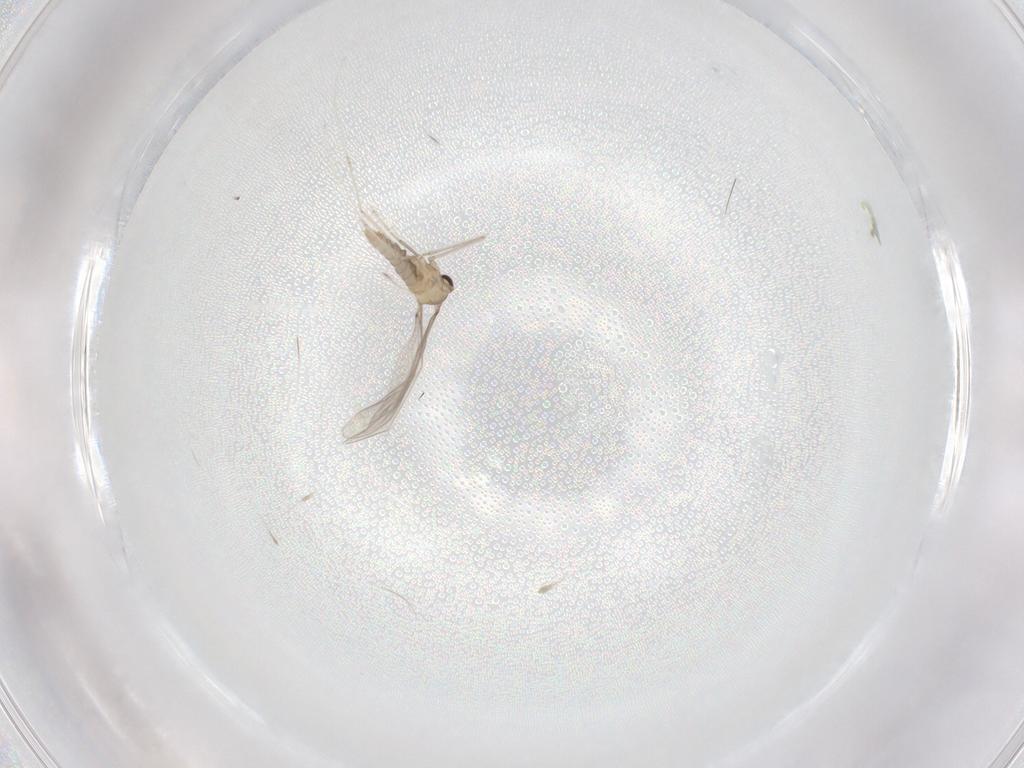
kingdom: Animalia
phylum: Arthropoda
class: Insecta
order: Diptera
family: Cecidomyiidae
